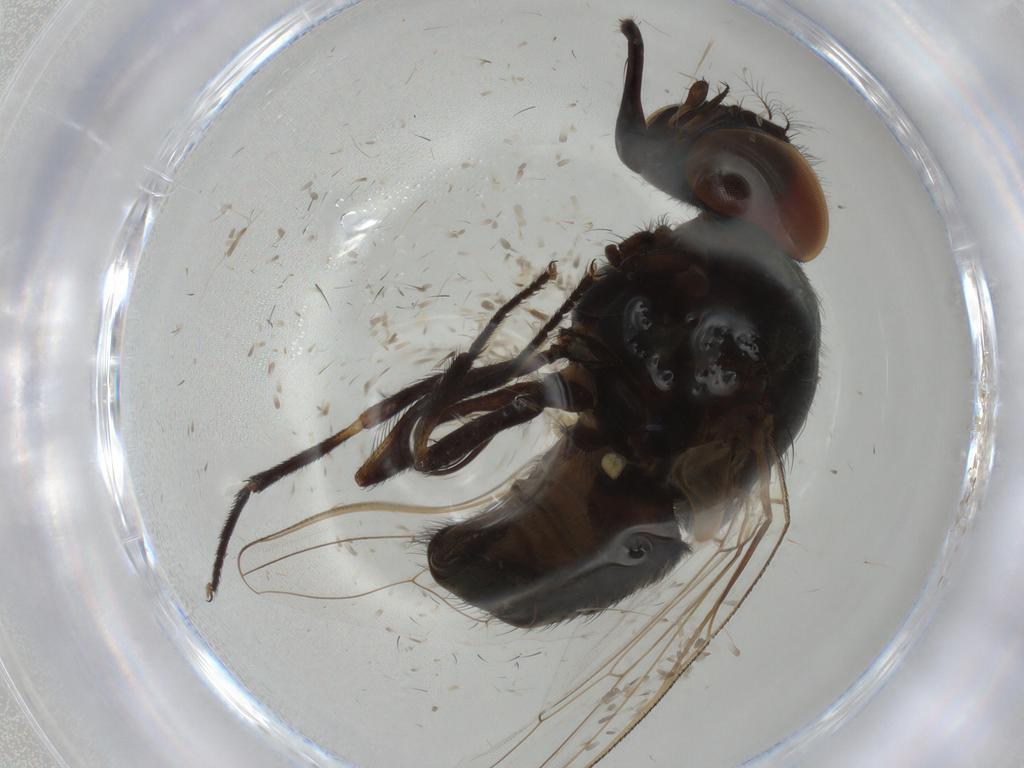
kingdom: Animalia
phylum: Arthropoda
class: Insecta
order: Diptera
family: Muscidae
